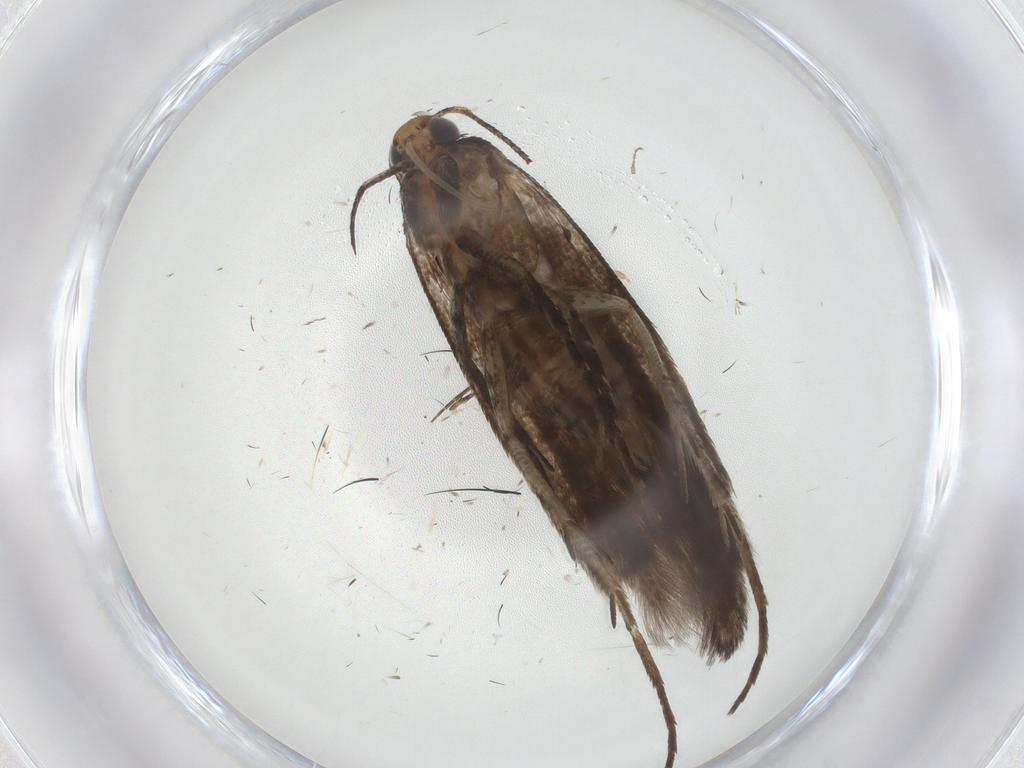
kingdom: Animalia
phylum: Arthropoda
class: Insecta
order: Lepidoptera
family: Gelechiidae
